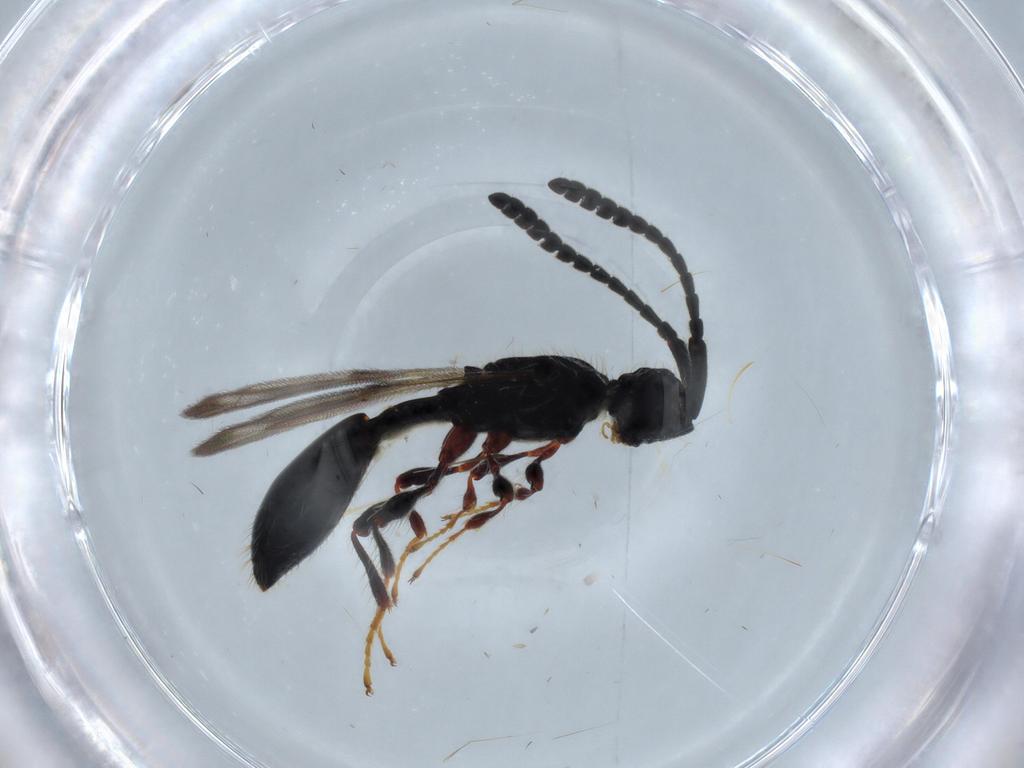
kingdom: Animalia
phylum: Arthropoda
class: Insecta
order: Hymenoptera
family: Diapriidae
